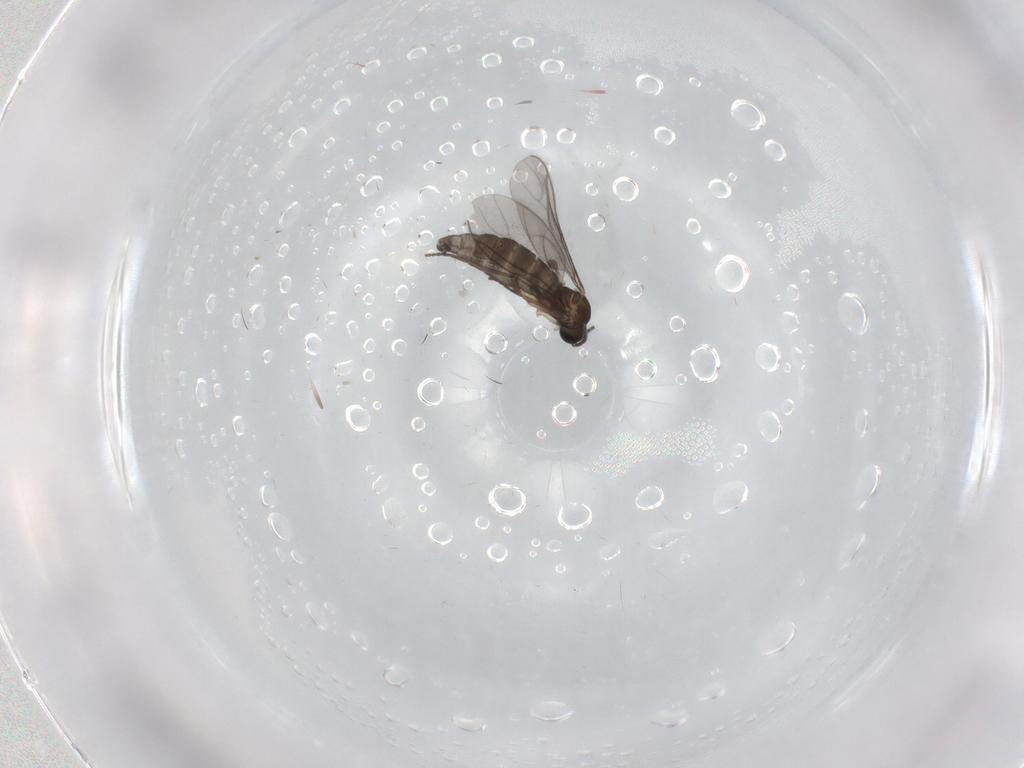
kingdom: Animalia
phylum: Arthropoda
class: Insecta
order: Diptera
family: Sciaridae
